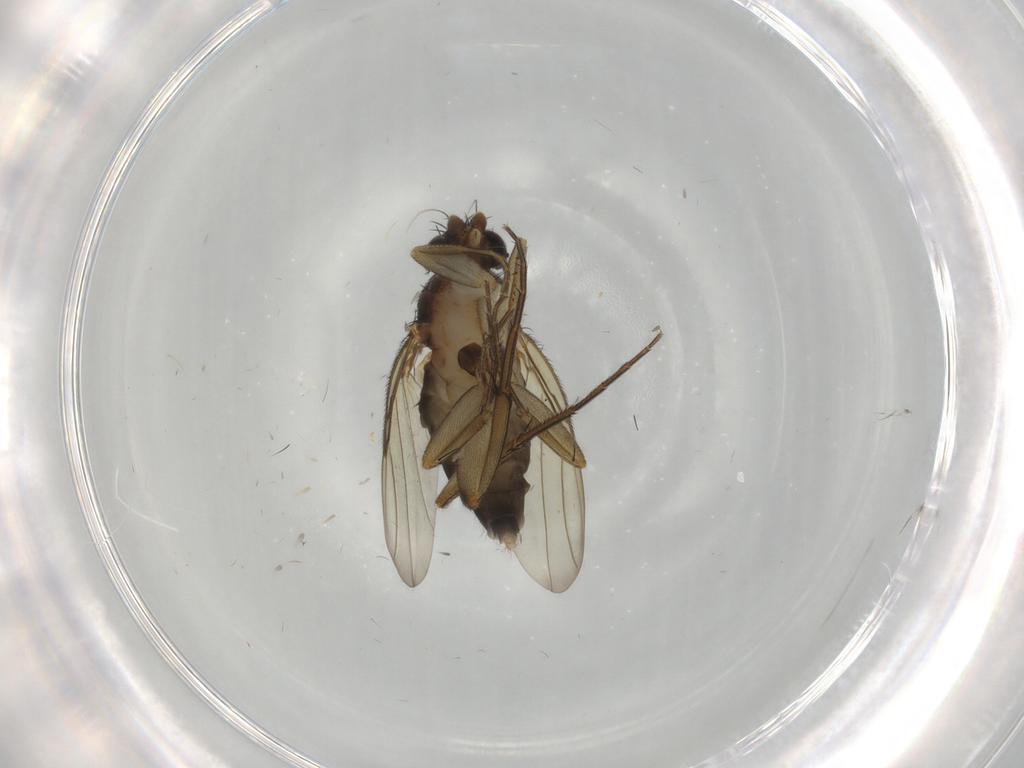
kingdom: Animalia
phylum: Arthropoda
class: Insecta
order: Diptera
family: Phoridae
